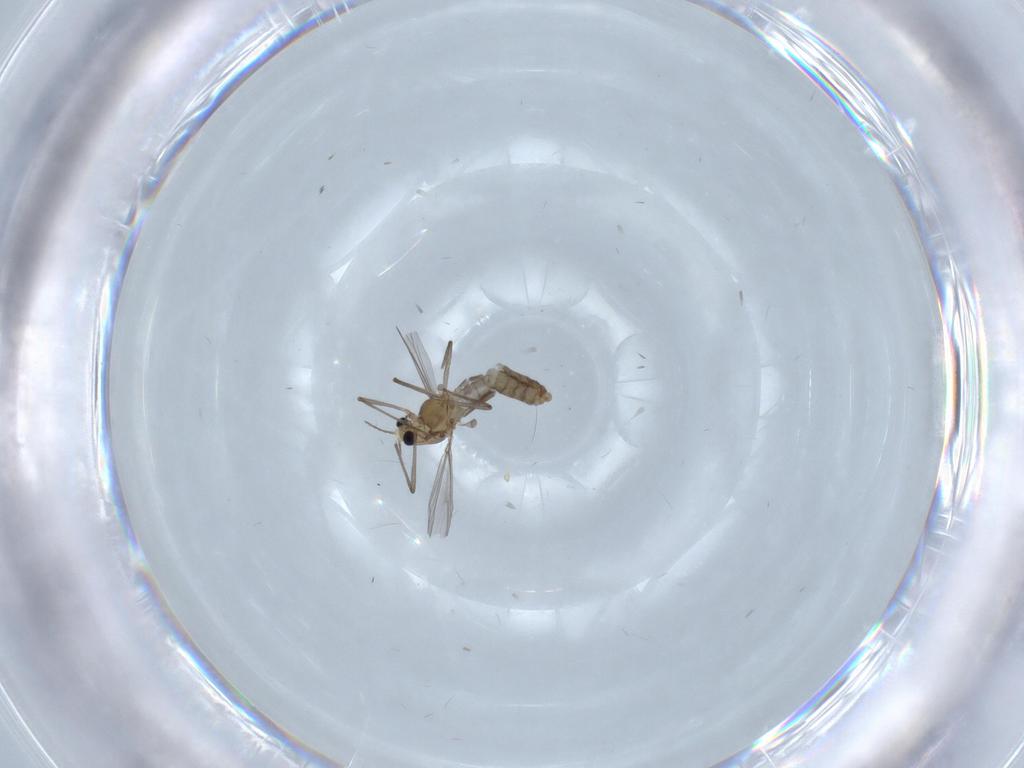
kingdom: Animalia
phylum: Arthropoda
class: Insecta
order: Diptera
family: Chironomidae
